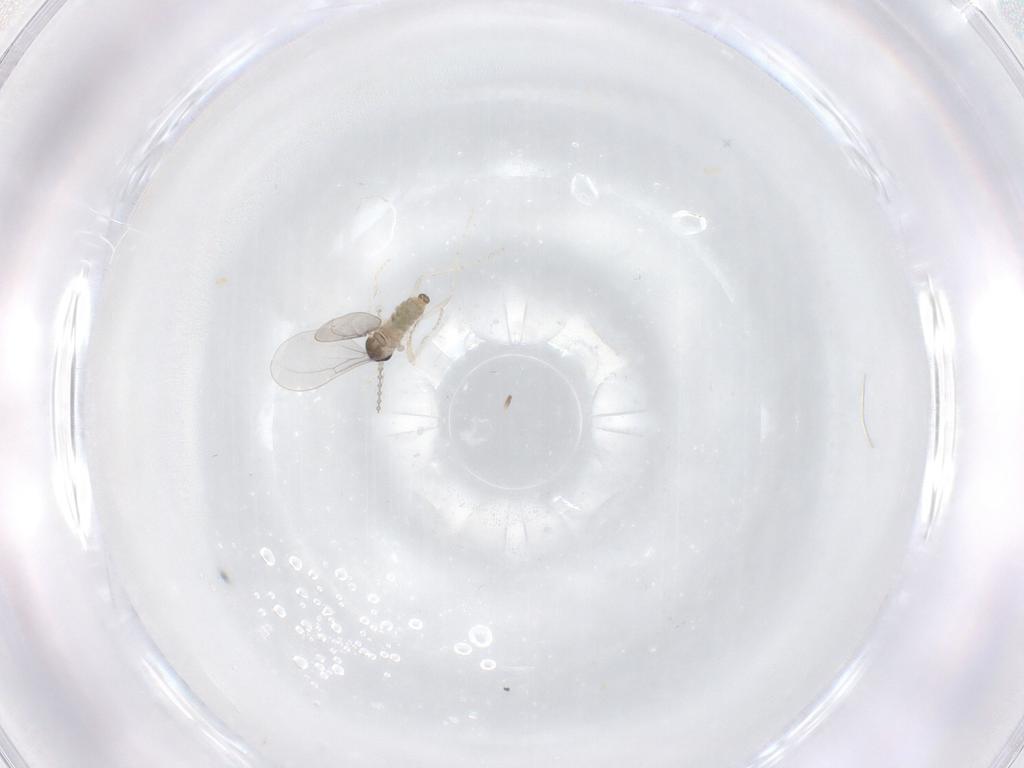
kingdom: Animalia
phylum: Arthropoda
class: Insecta
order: Diptera
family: Cecidomyiidae
